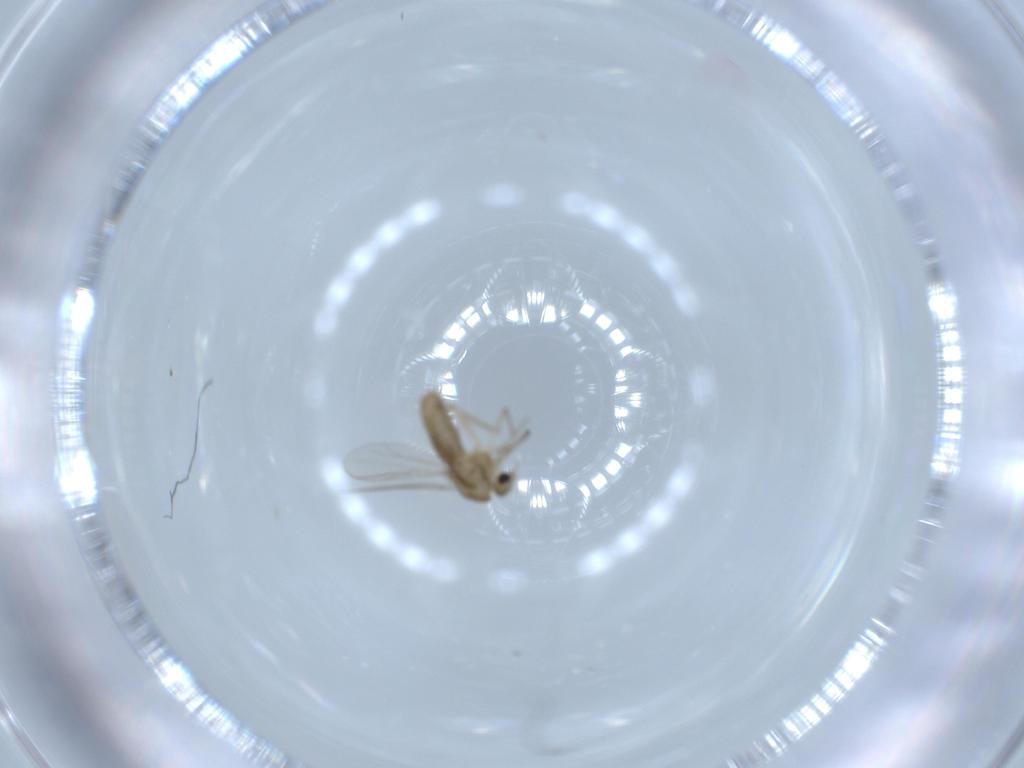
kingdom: Animalia
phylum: Arthropoda
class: Insecta
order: Diptera
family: Chironomidae
